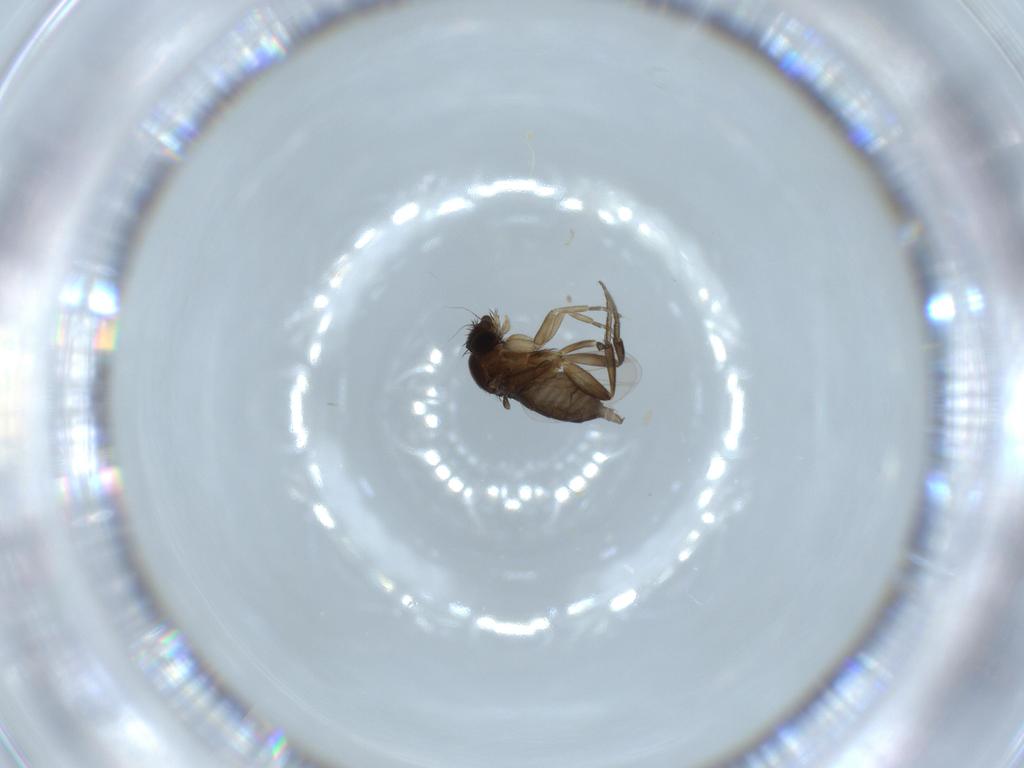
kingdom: Animalia
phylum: Arthropoda
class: Insecta
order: Diptera
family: Phoridae
